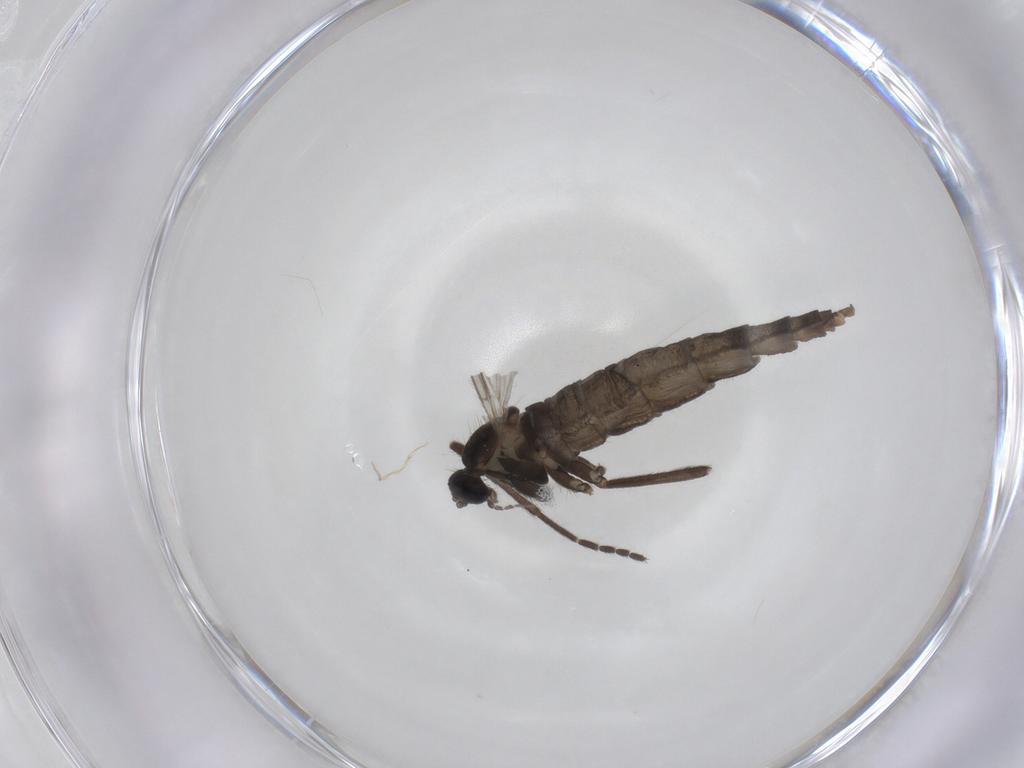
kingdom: Animalia
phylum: Arthropoda
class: Insecta
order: Diptera
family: Cecidomyiidae
